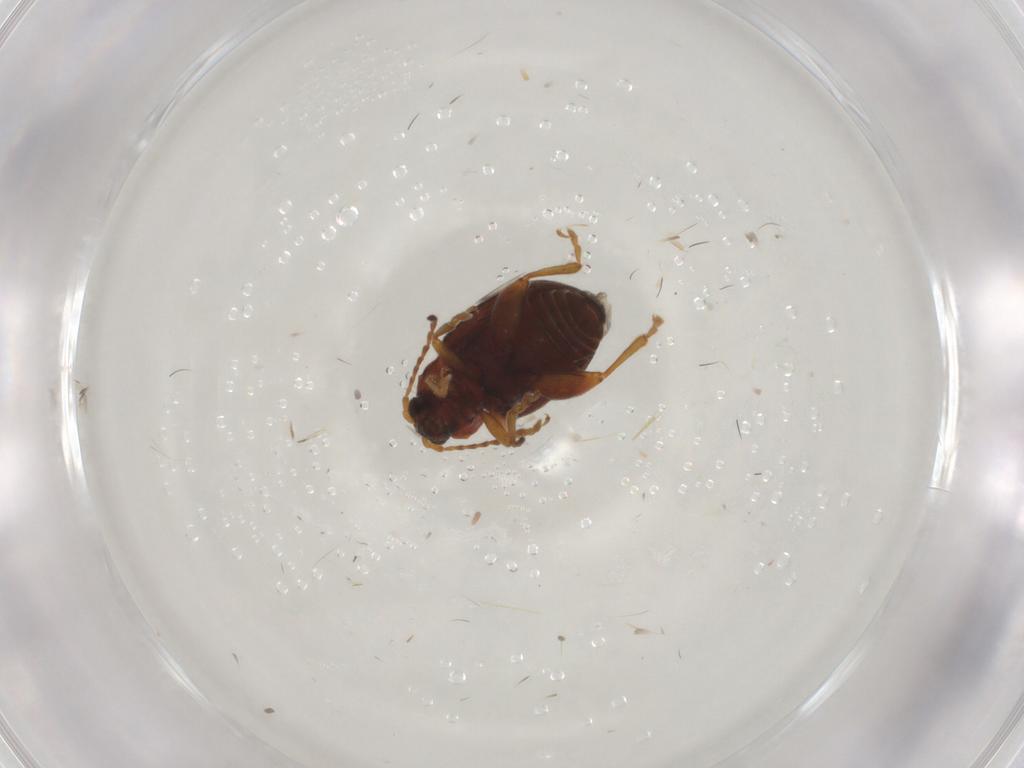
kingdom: Animalia
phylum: Arthropoda
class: Insecta
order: Coleoptera
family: Chrysomelidae
